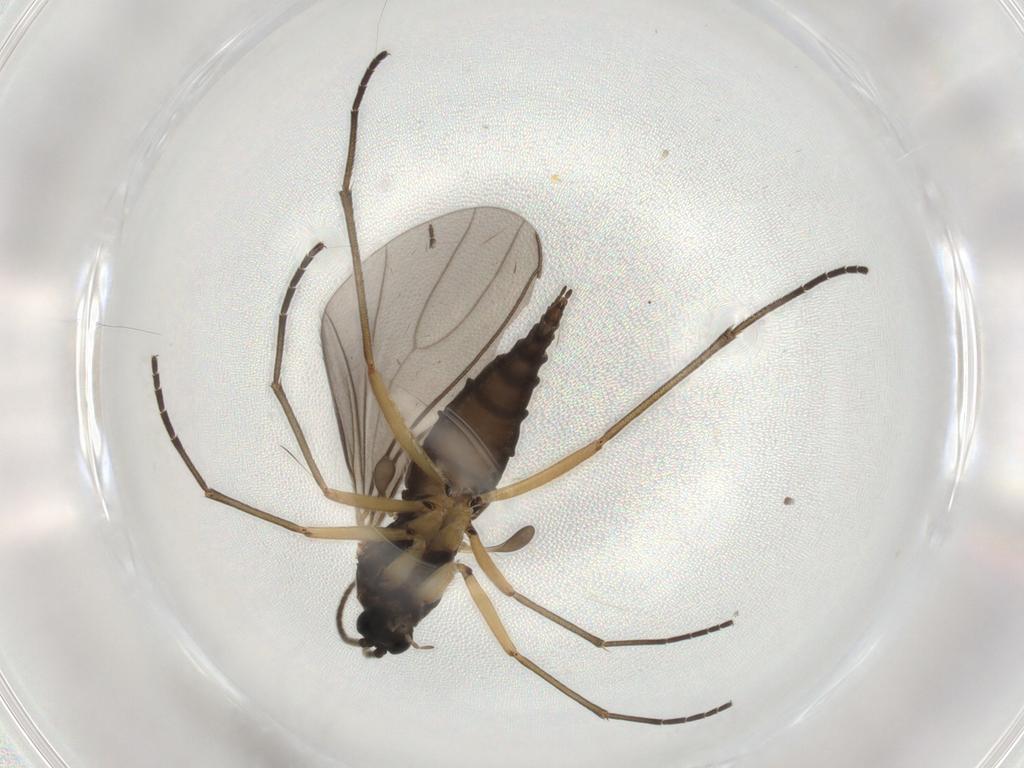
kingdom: Animalia
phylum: Arthropoda
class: Insecta
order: Diptera
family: Sciaridae
